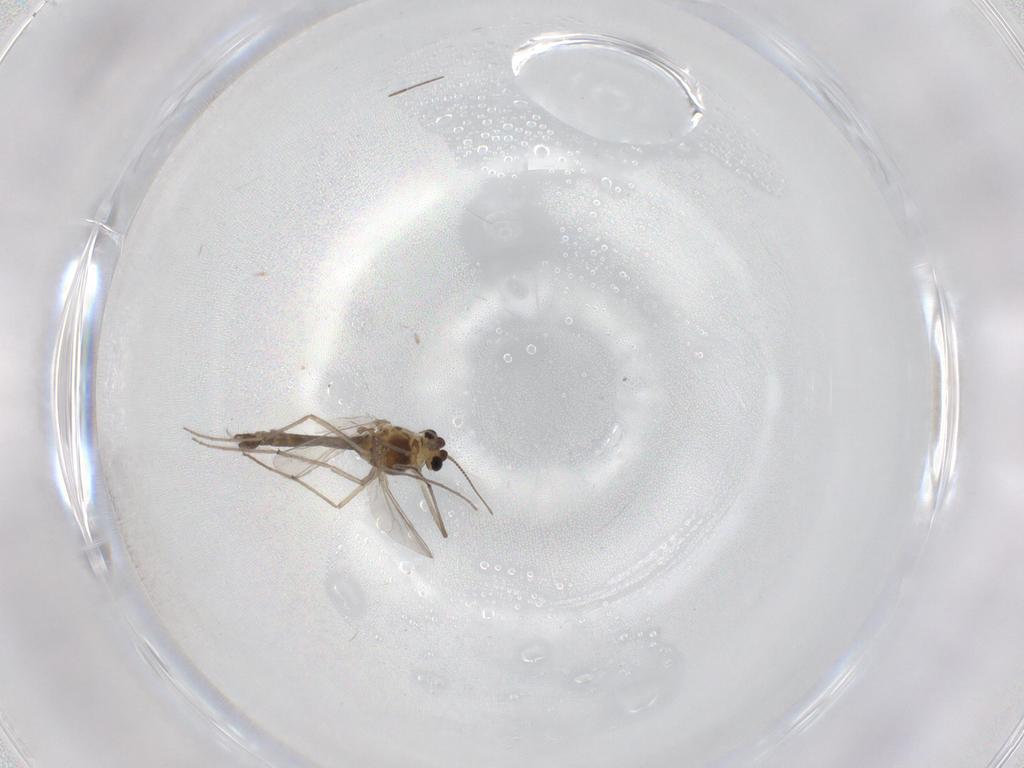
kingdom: Animalia
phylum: Arthropoda
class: Insecta
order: Diptera
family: Chironomidae
